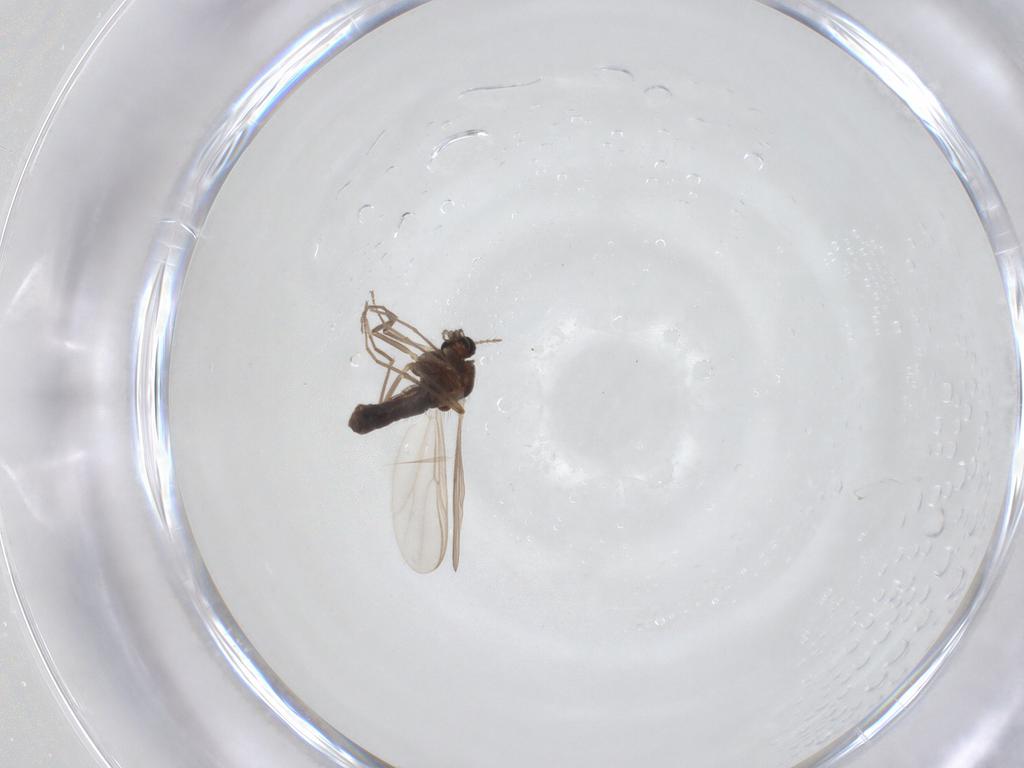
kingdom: Animalia
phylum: Arthropoda
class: Insecta
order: Diptera
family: Chironomidae
